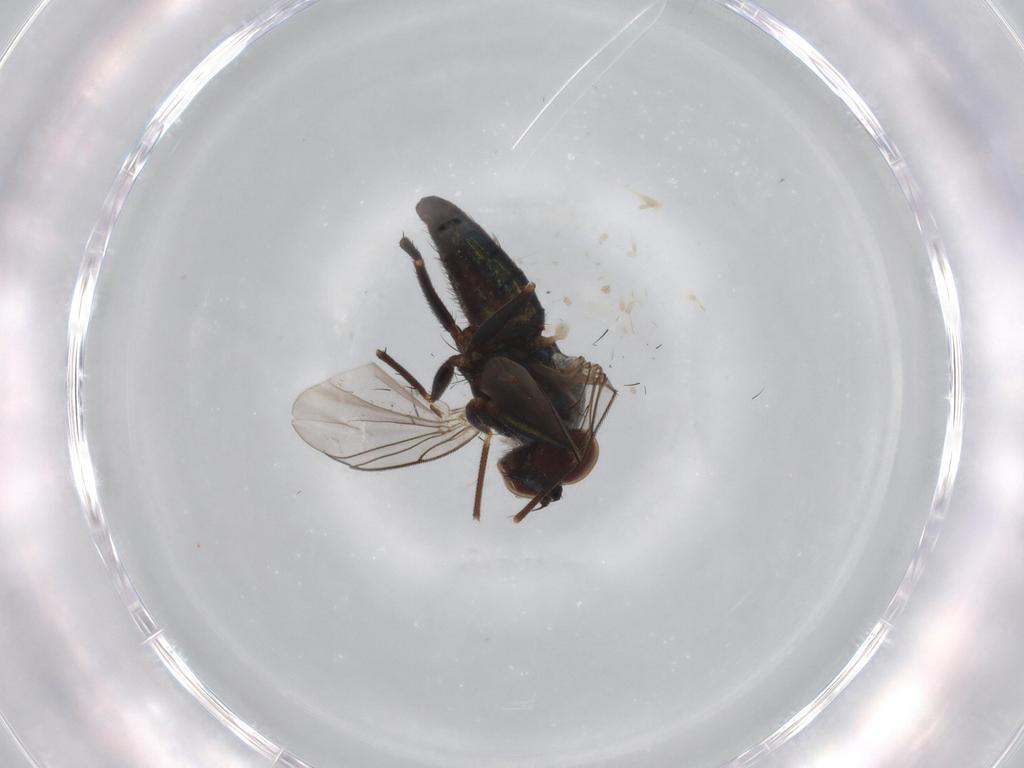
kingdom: Animalia
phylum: Arthropoda
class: Insecta
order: Diptera
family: Dolichopodidae
